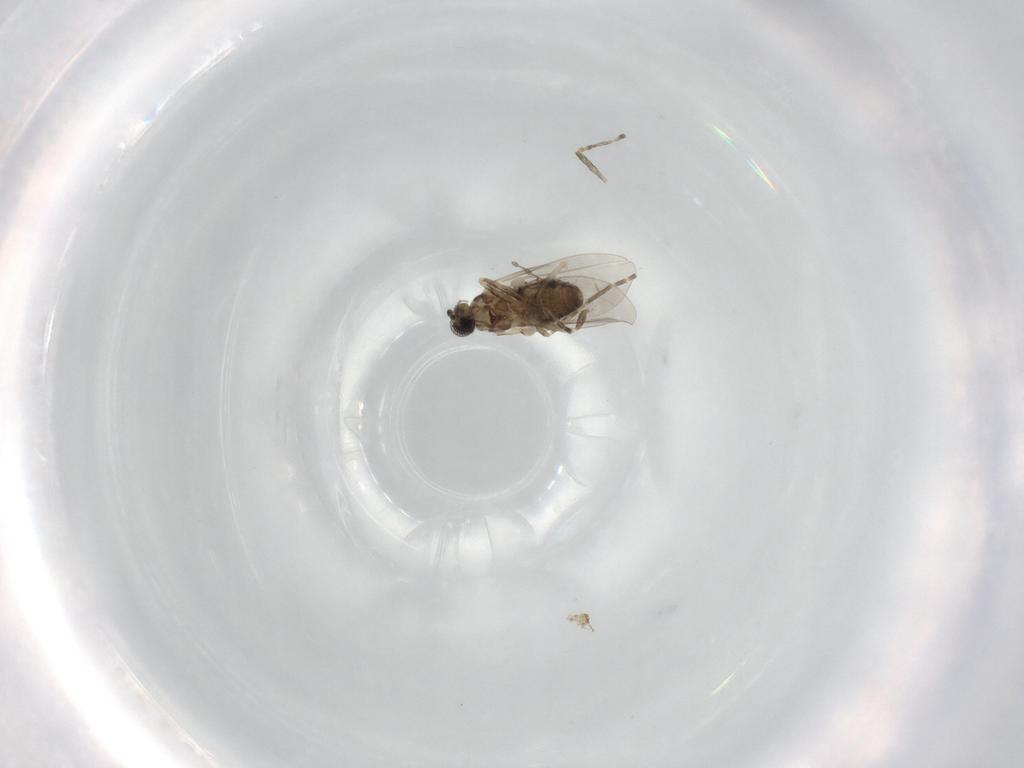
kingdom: Animalia
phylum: Arthropoda
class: Insecta
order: Diptera
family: Cecidomyiidae
